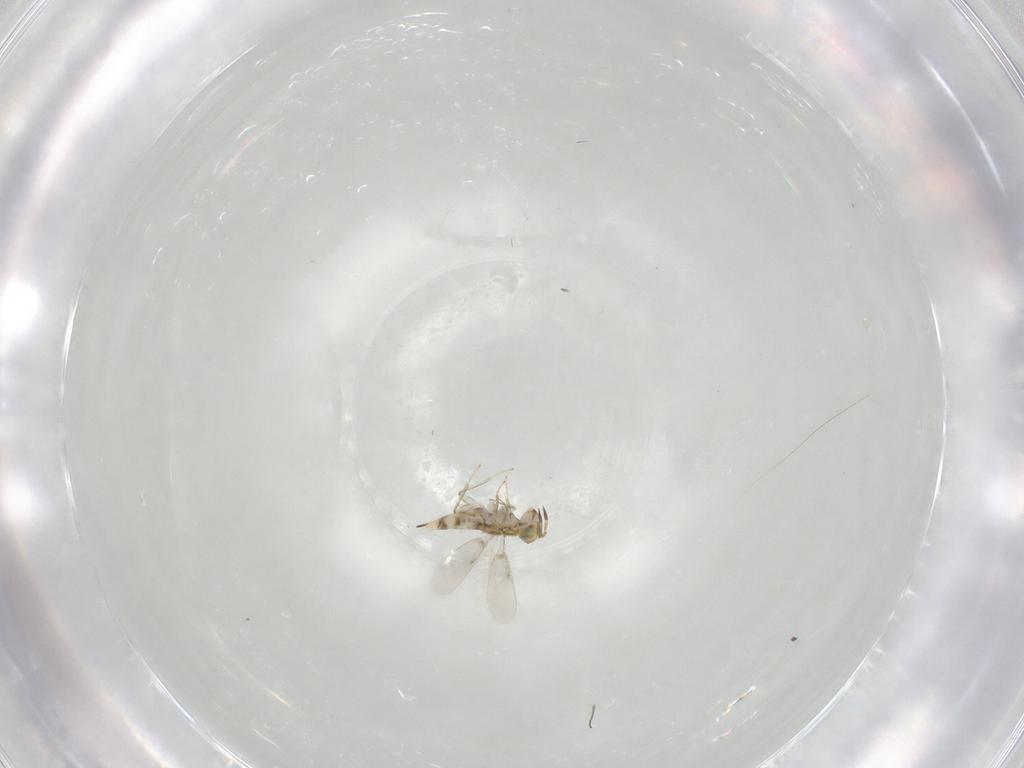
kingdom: Animalia
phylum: Arthropoda
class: Insecta
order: Hymenoptera
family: Aphelinidae
